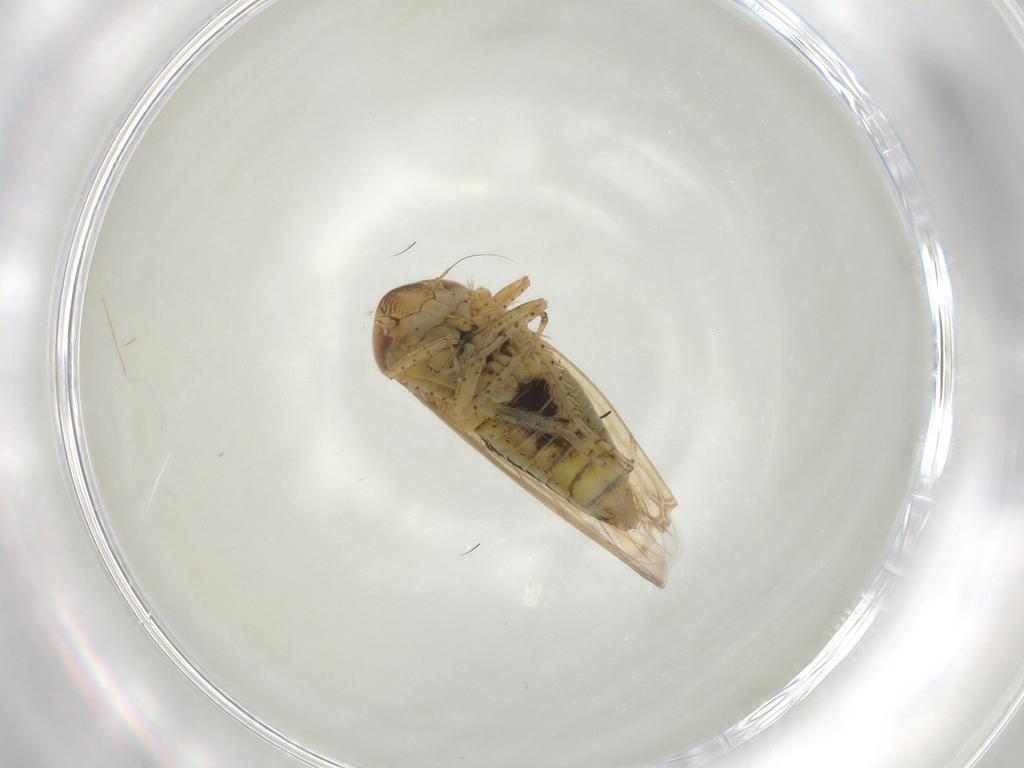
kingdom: Animalia
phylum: Arthropoda
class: Insecta
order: Hemiptera
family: Cicadellidae
